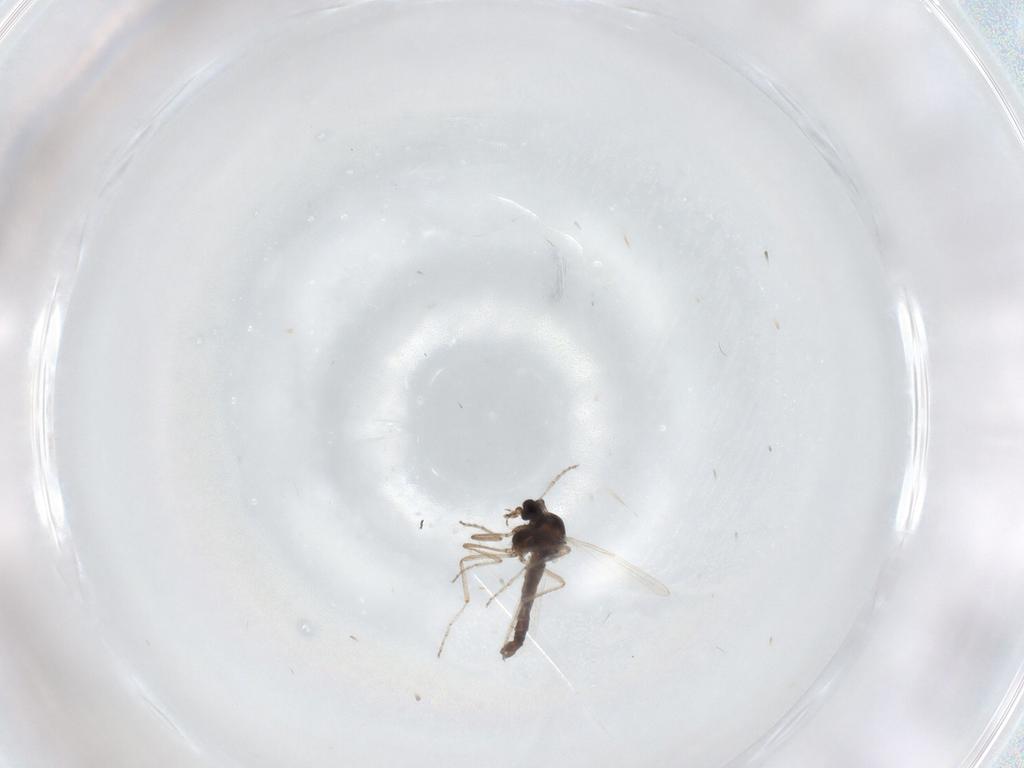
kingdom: Animalia
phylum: Arthropoda
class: Insecta
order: Diptera
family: Ceratopogonidae
